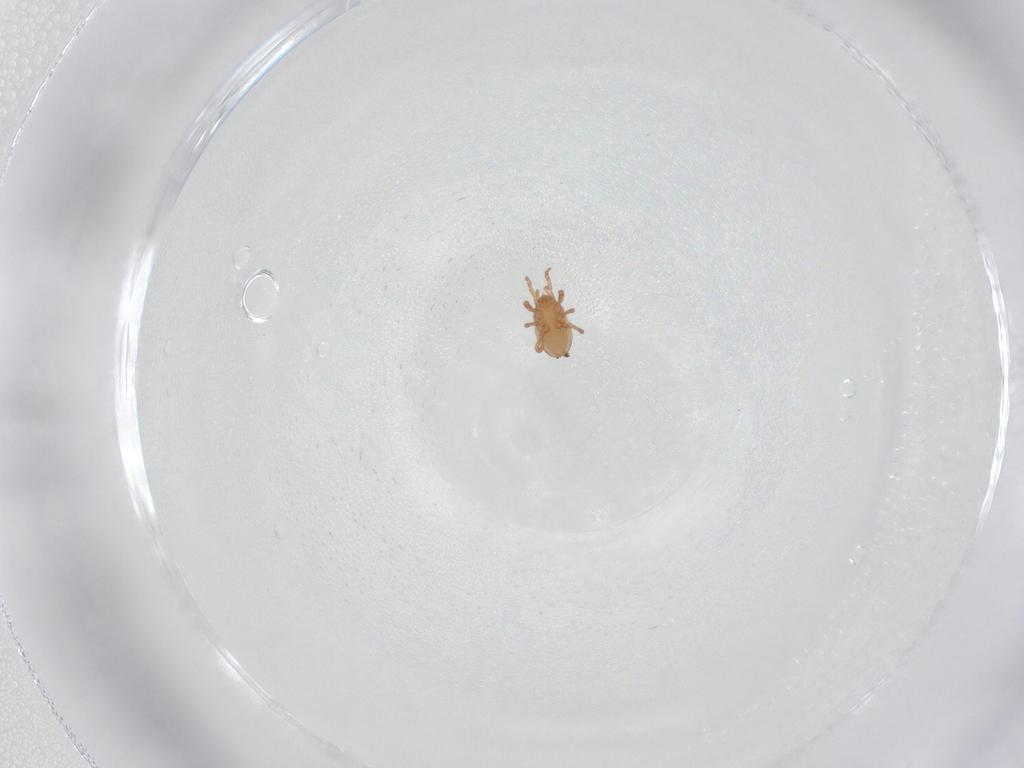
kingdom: Animalia
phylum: Arthropoda
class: Arachnida
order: Mesostigmata
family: Ologamasidae
